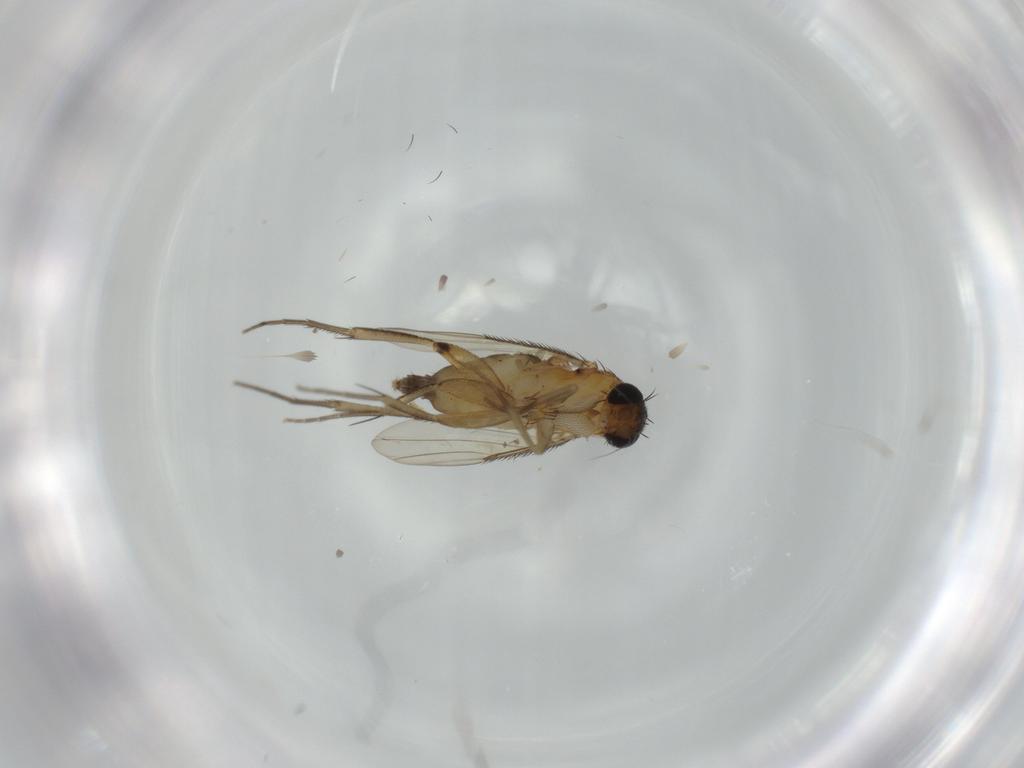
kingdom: Animalia
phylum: Arthropoda
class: Insecta
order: Diptera
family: Phoridae
